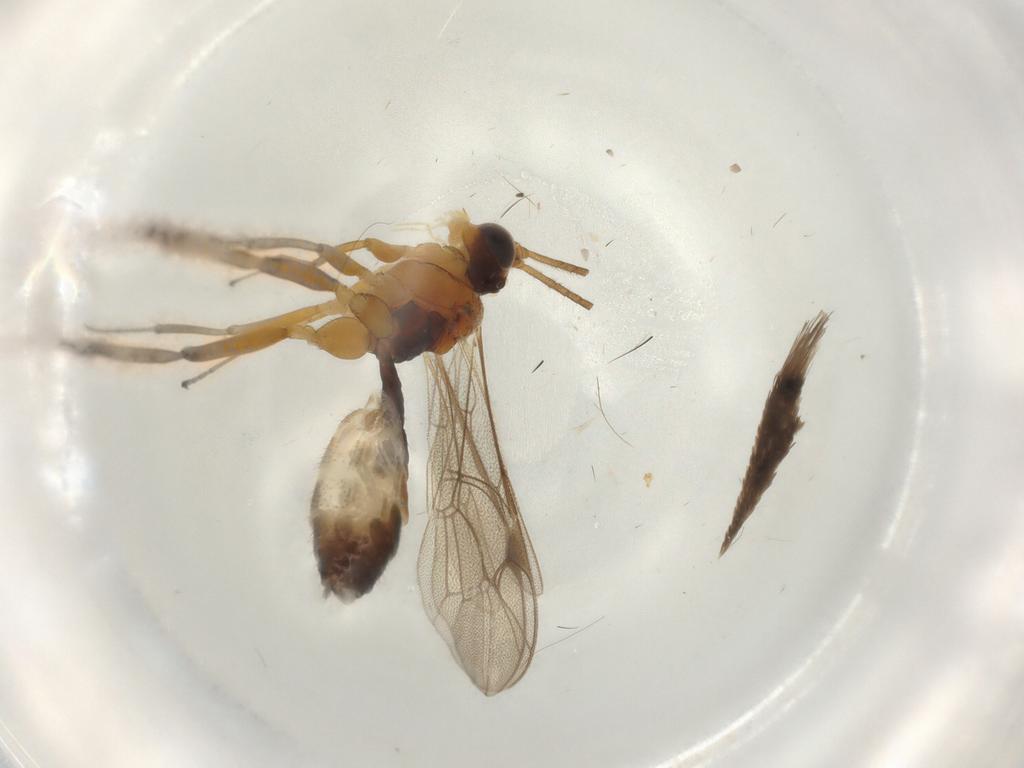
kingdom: Animalia
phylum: Arthropoda
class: Insecta
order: Hymenoptera
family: Ichneumonidae
